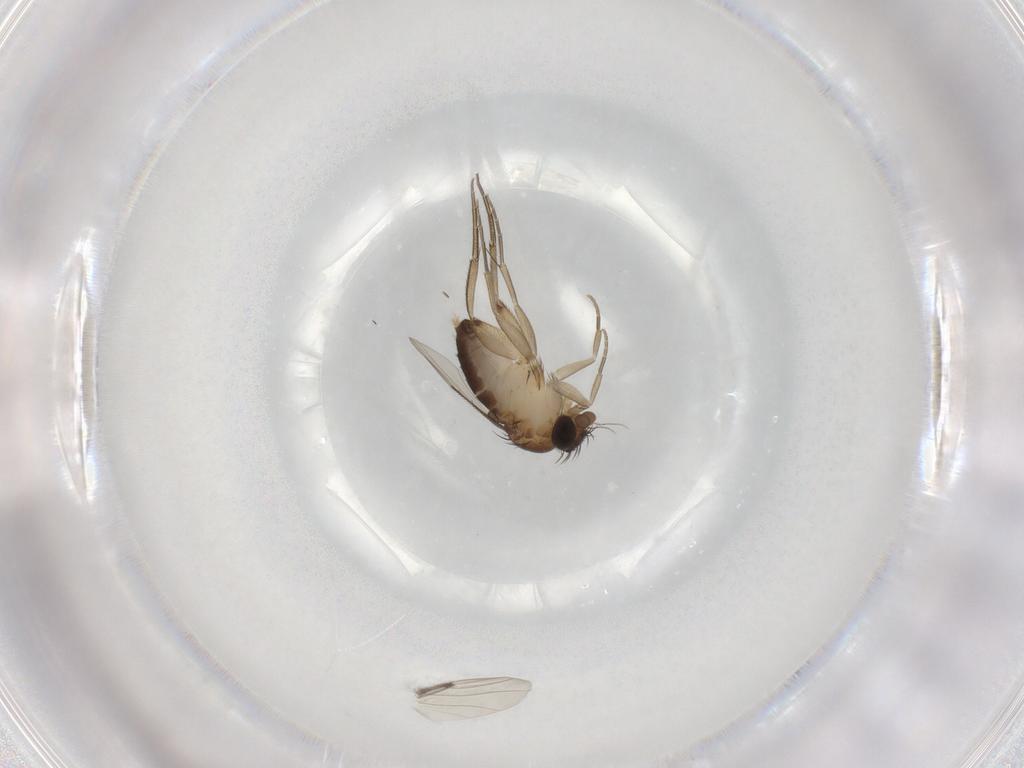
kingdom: Animalia
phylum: Arthropoda
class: Insecta
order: Diptera
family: Phoridae
